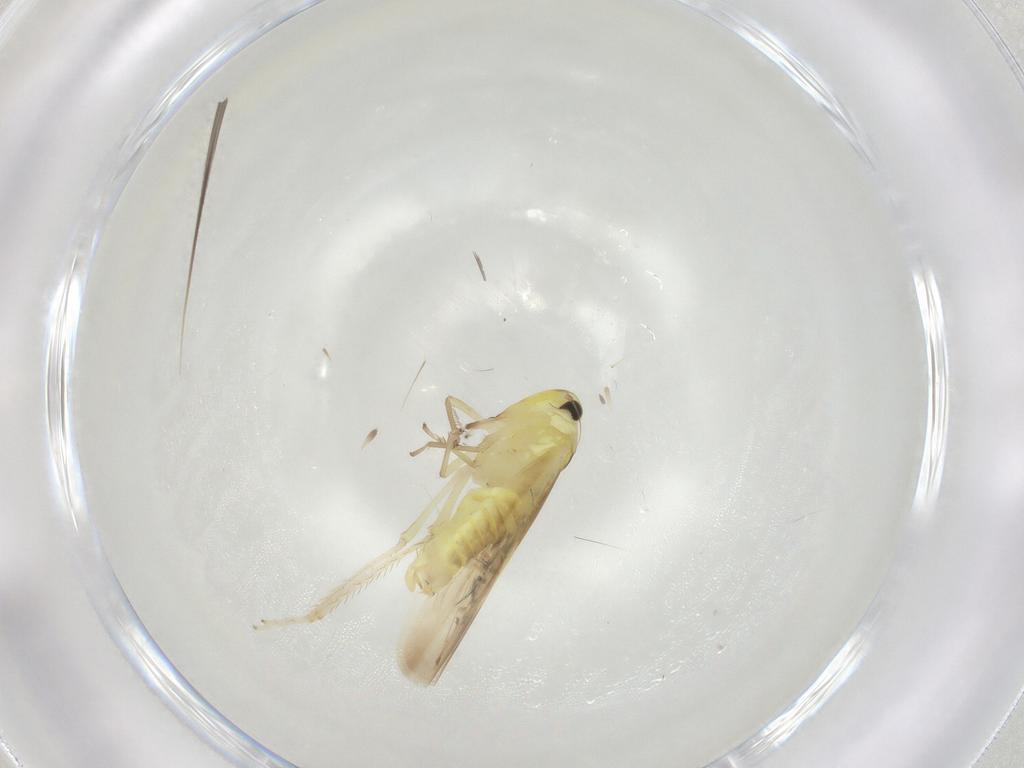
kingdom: Animalia
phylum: Arthropoda
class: Insecta
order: Hemiptera
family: Cicadellidae
